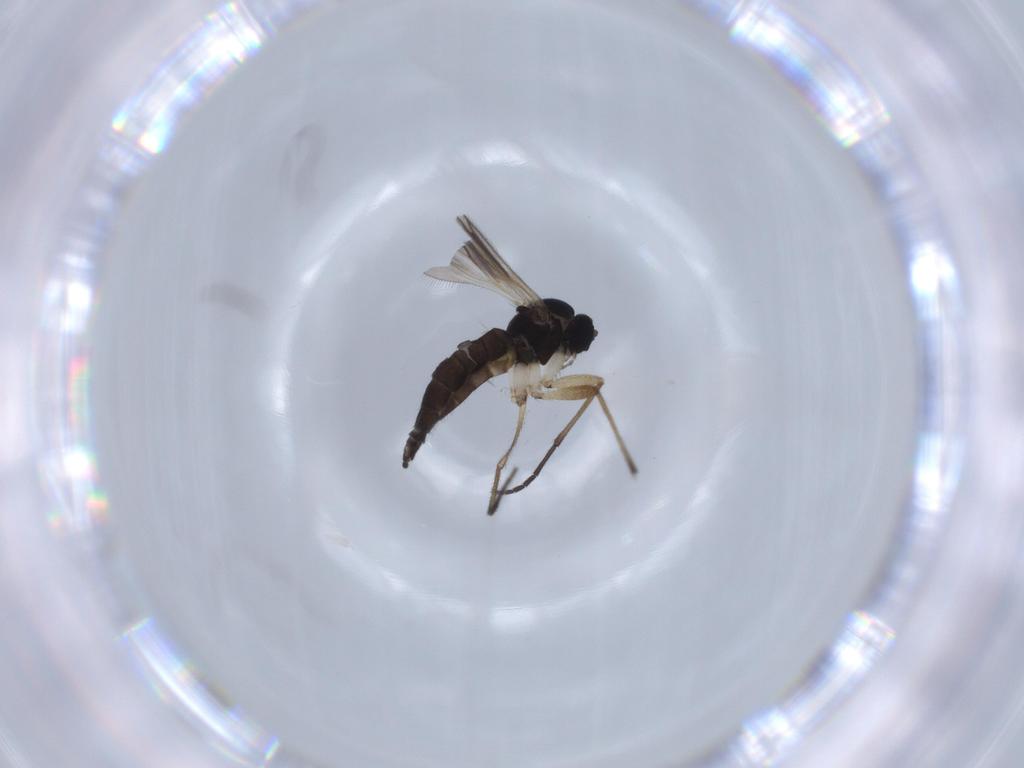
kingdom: Animalia
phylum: Arthropoda
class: Insecta
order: Diptera
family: Sciaridae
